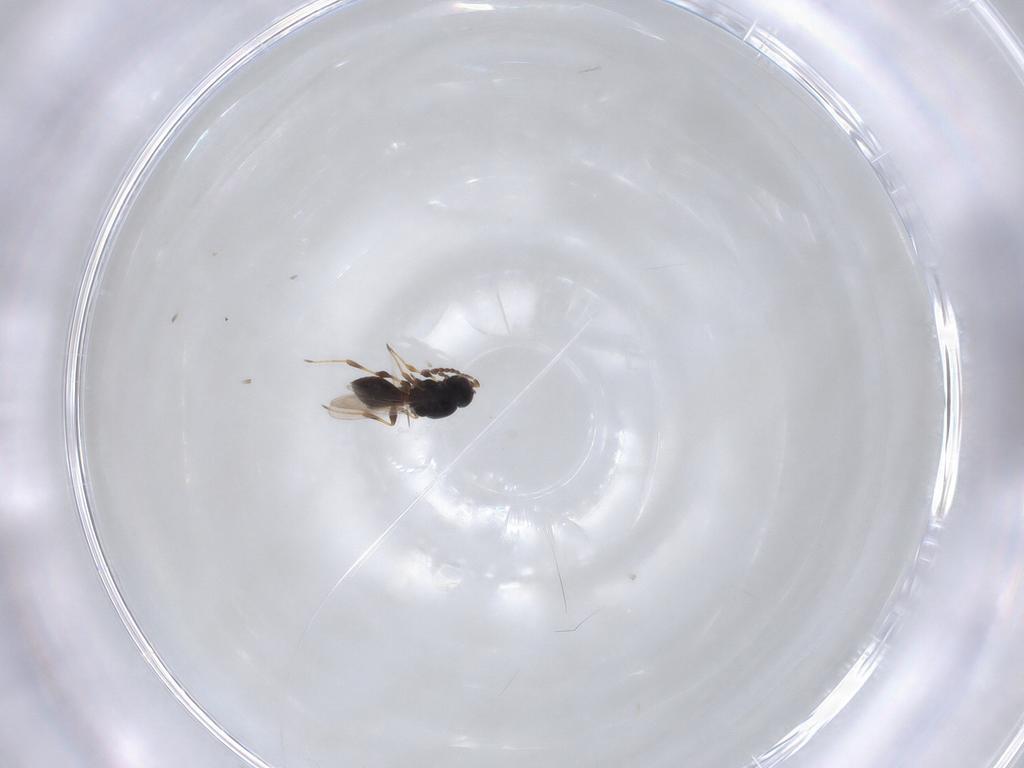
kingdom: Animalia
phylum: Arthropoda
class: Insecta
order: Hymenoptera
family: Platygastridae
